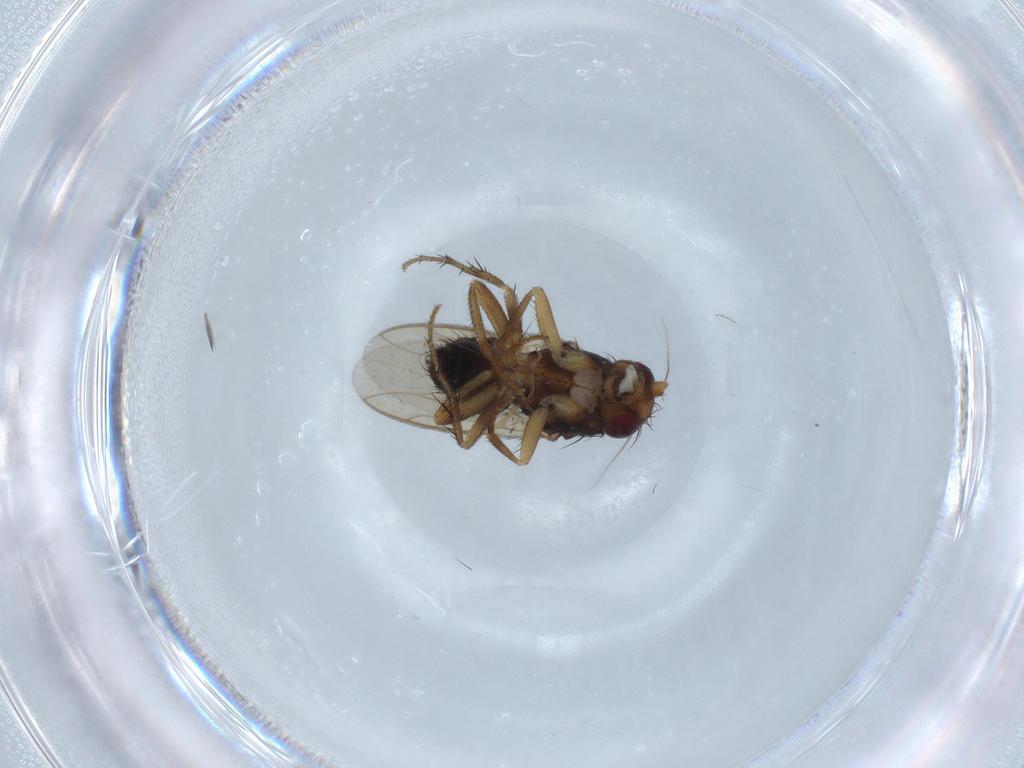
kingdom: Animalia
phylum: Arthropoda
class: Insecta
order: Diptera
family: Sphaeroceridae
